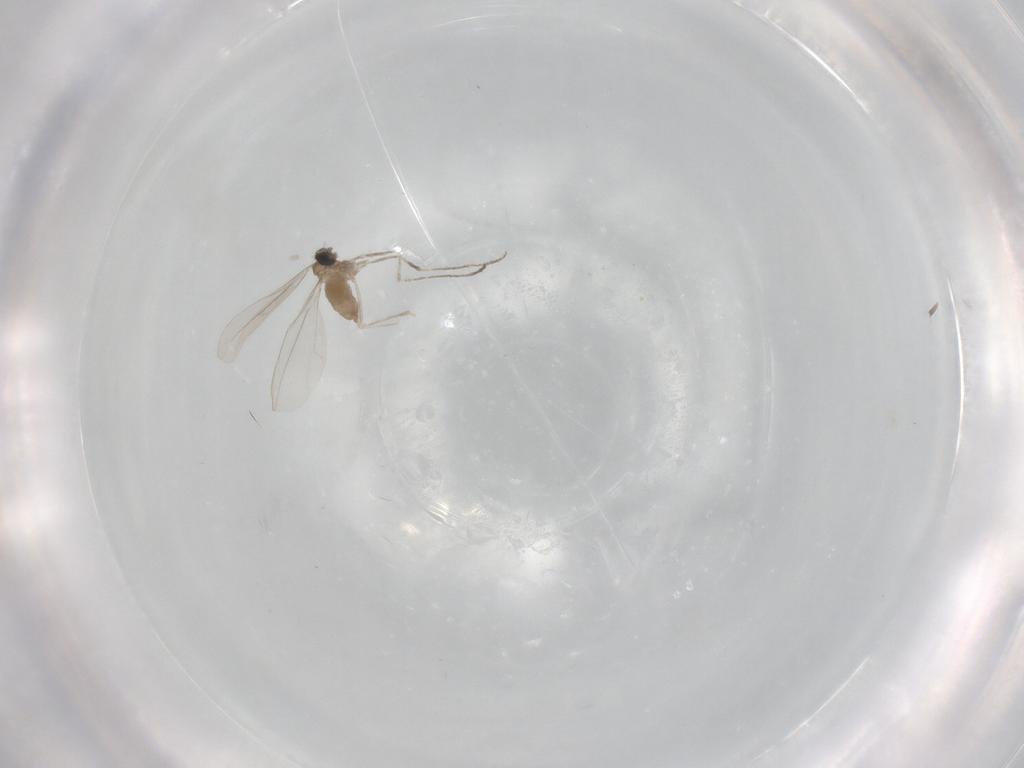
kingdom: Animalia
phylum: Arthropoda
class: Insecta
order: Diptera
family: Cecidomyiidae
